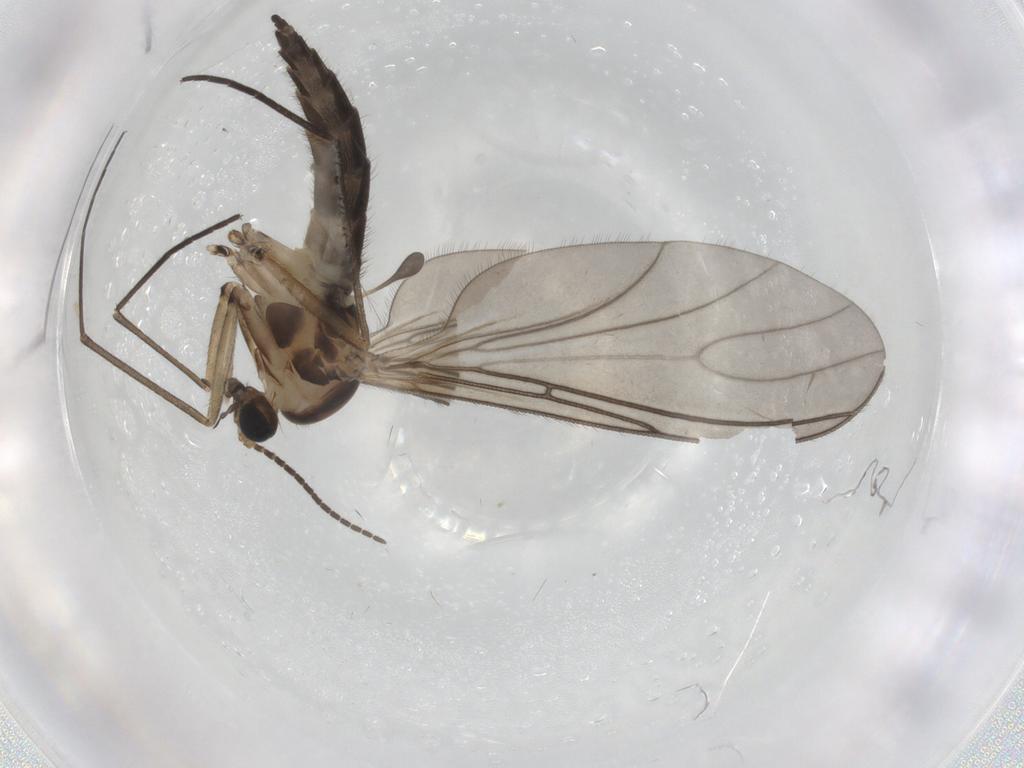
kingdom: Animalia
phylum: Arthropoda
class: Insecta
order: Diptera
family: Sciaridae
